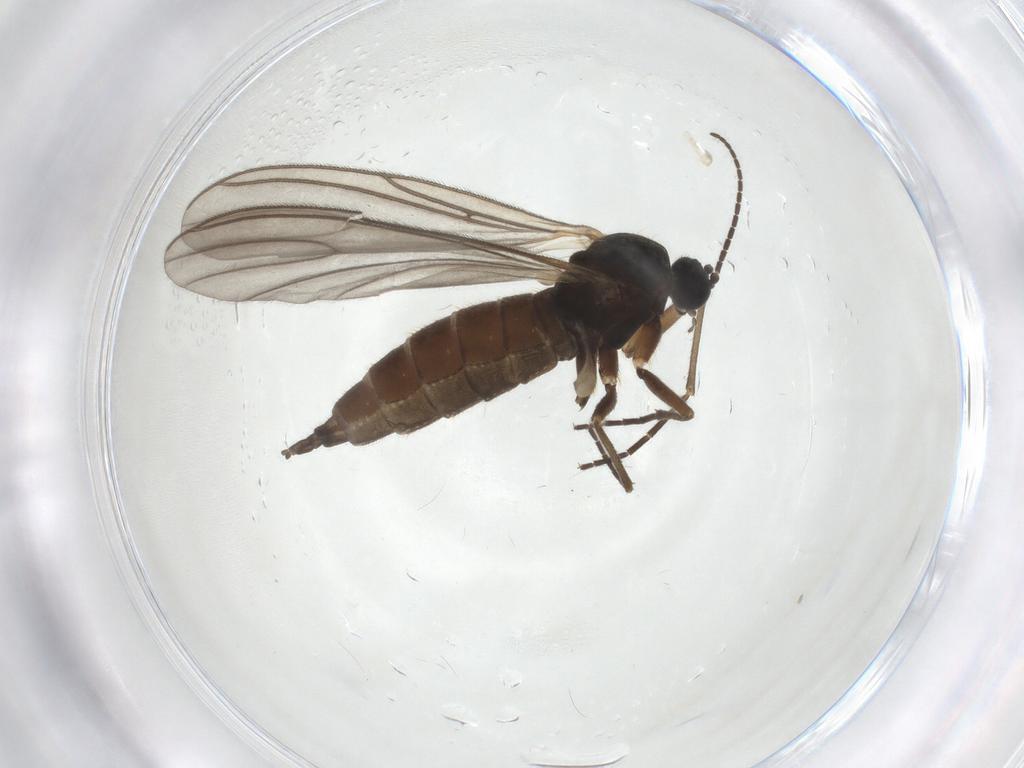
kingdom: Animalia
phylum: Arthropoda
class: Insecta
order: Diptera
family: Sciaridae
